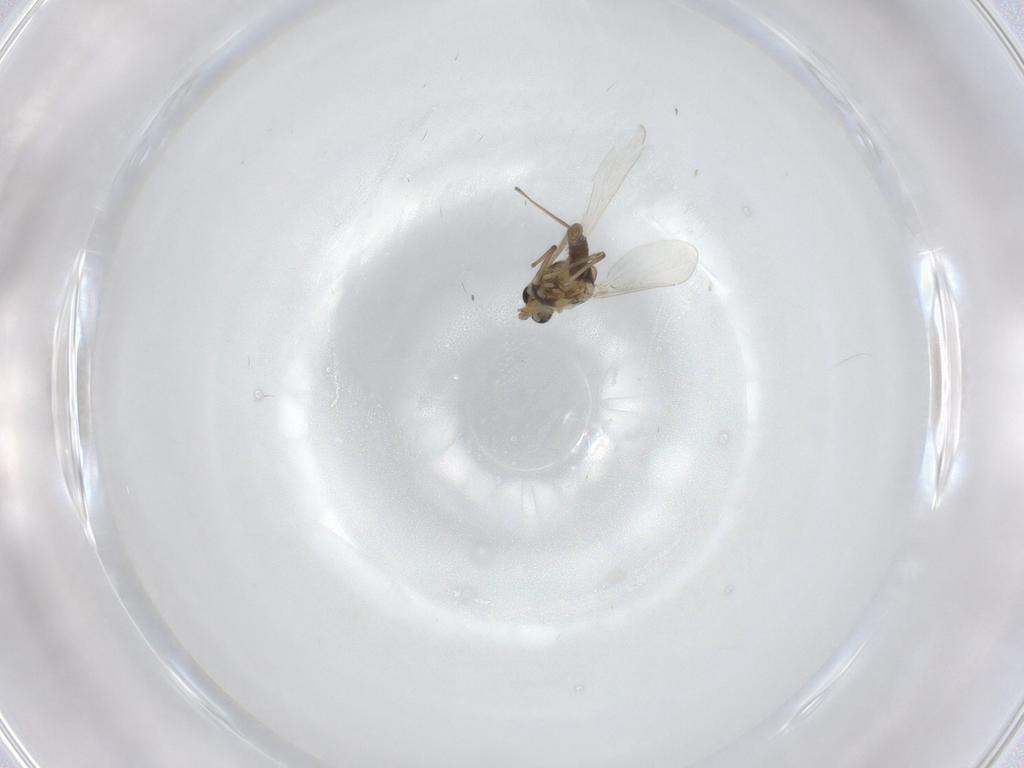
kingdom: Animalia
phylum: Arthropoda
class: Insecta
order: Diptera
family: Chironomidae
